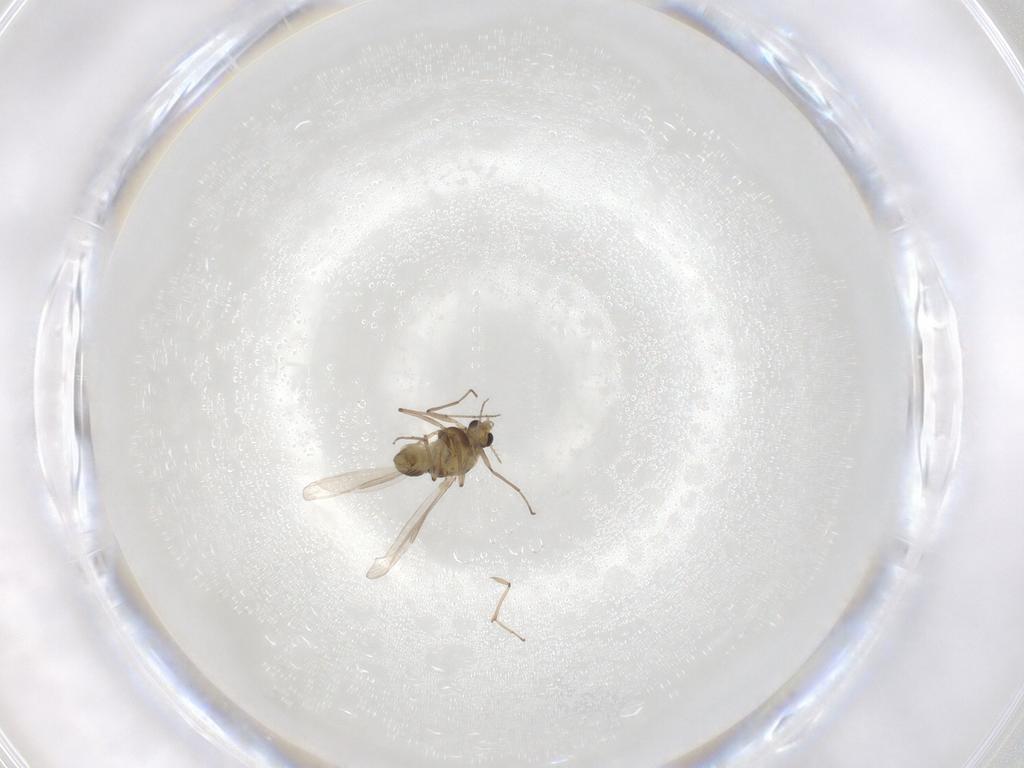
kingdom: Animalia
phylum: Arthropoda
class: Insecta
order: Diptera
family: Chironomidae
